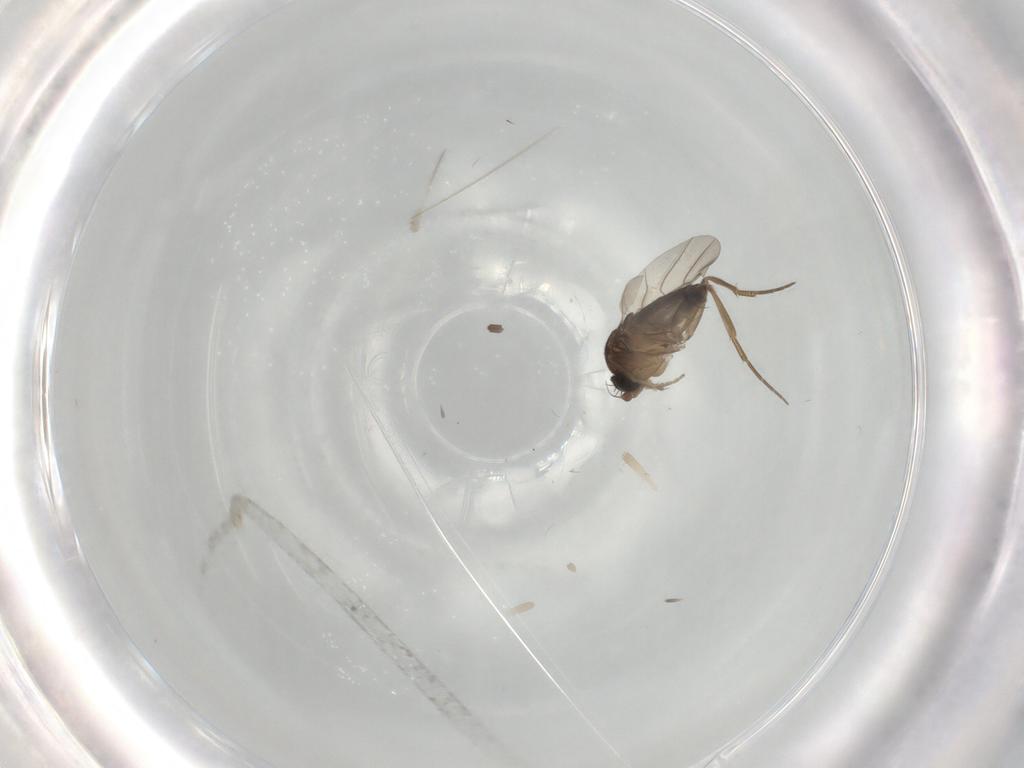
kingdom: Animalia
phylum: Arthropoda
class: Insecta
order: Diptera
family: Phoridae
